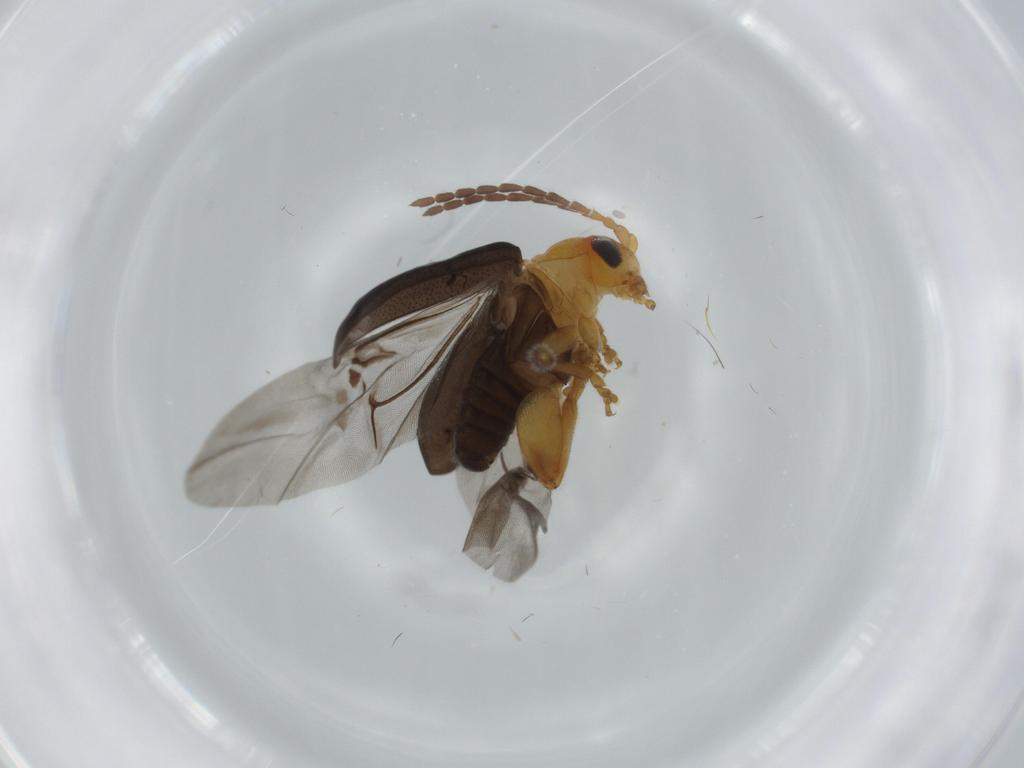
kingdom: Animalia
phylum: Arthropoda
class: Insecta
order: Coleoptera
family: Chrysomelidae
